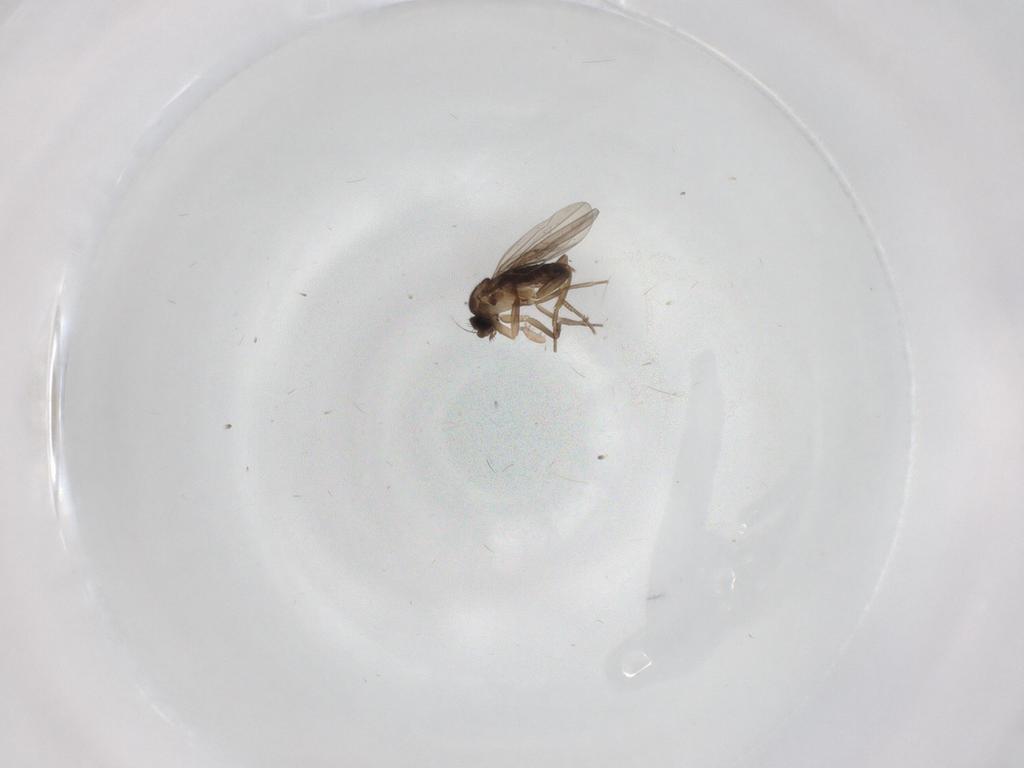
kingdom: Animalia
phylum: Arthropoda
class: Insecta
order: Diptera
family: Phoridae
